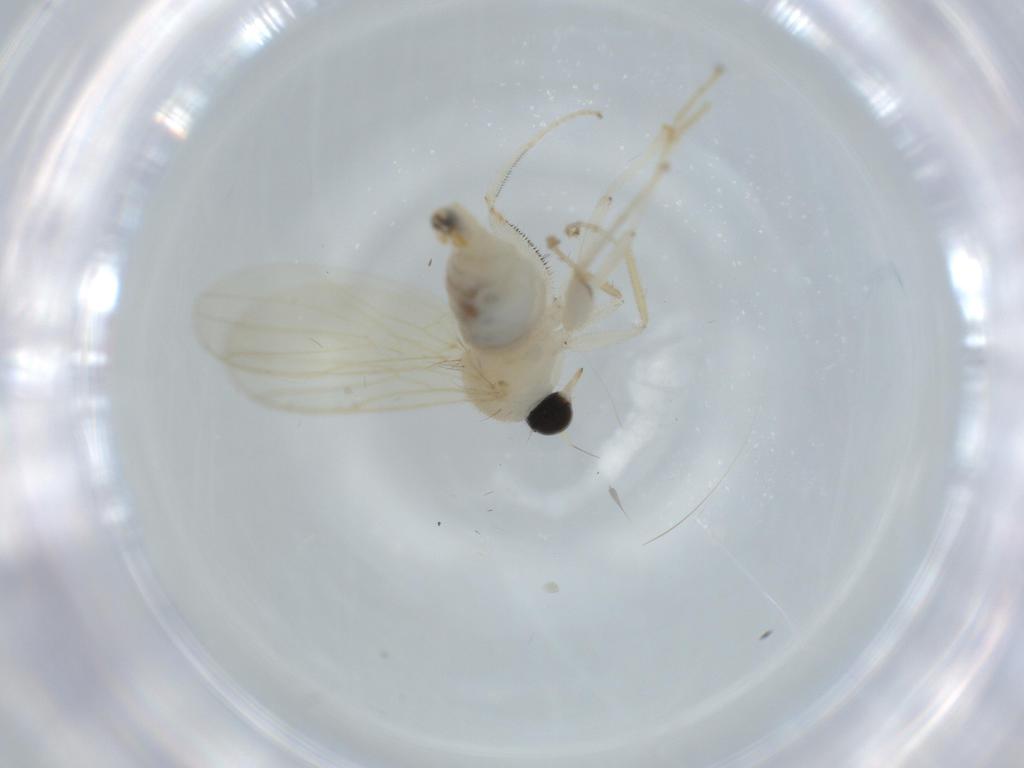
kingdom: Animalia
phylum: Arthropoda
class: Insecta
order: Diptera
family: Hybotidae
